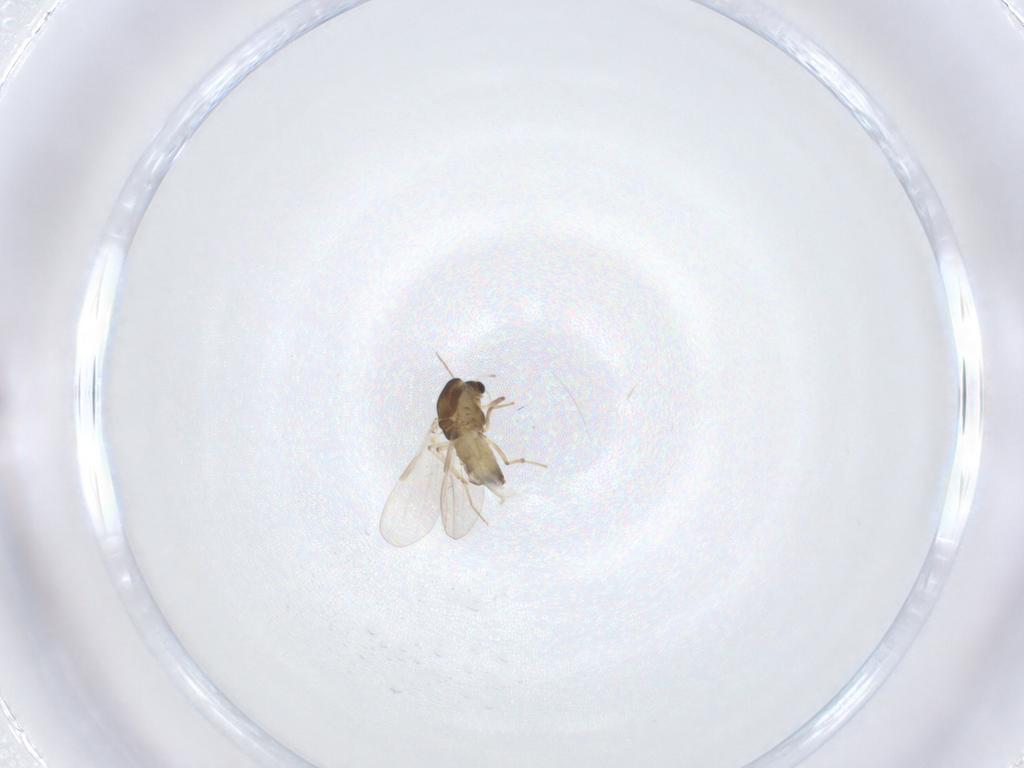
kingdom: Animalia
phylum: Arthropoda
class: Insecta
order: Diptera
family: Chironomidae
